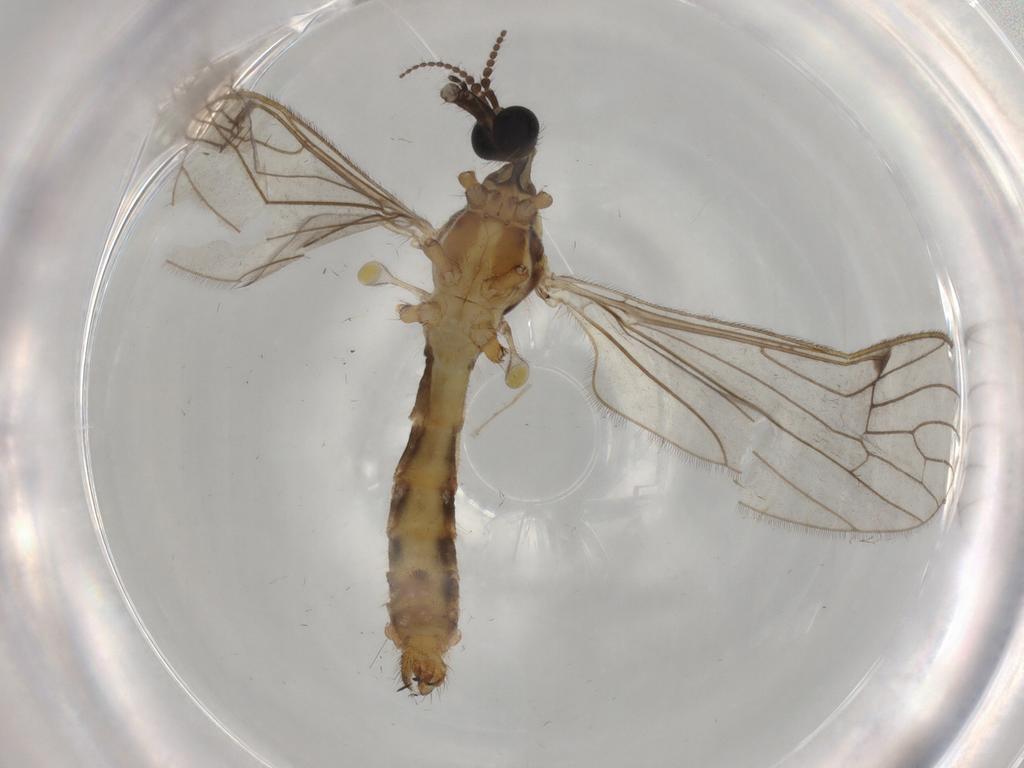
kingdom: Animalia
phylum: Arthropoda
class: Insecta
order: Diptera
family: Limoniidae
